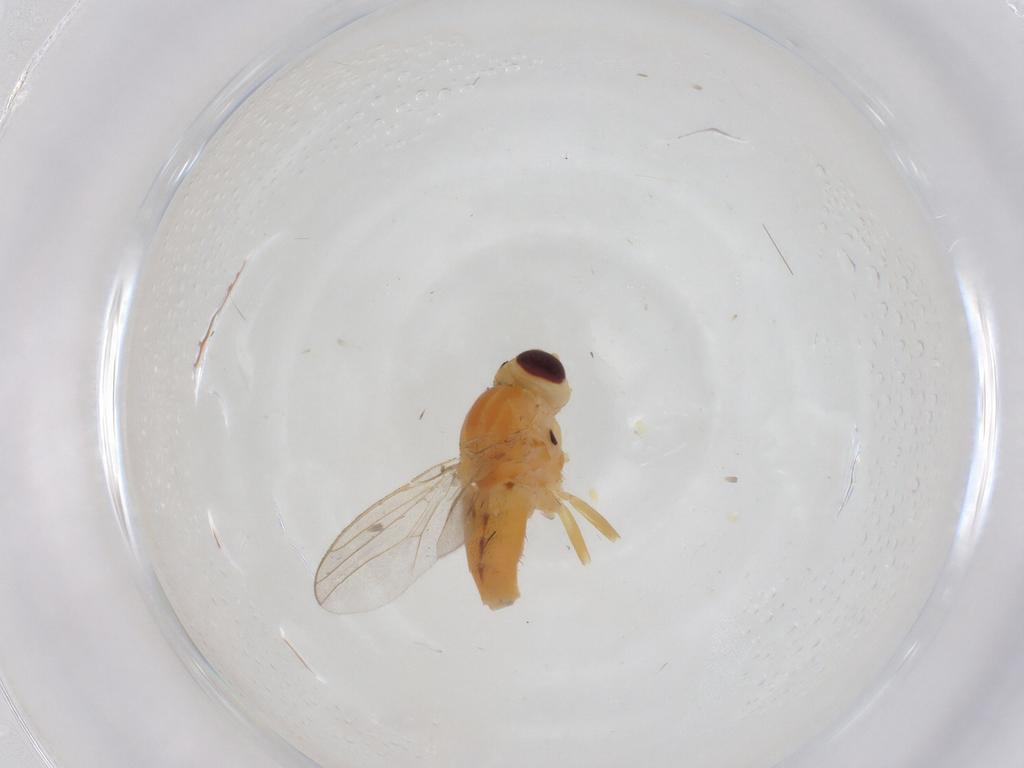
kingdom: Animalia
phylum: Arthropoda
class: Insecta
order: Diptera
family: Chloropidae
